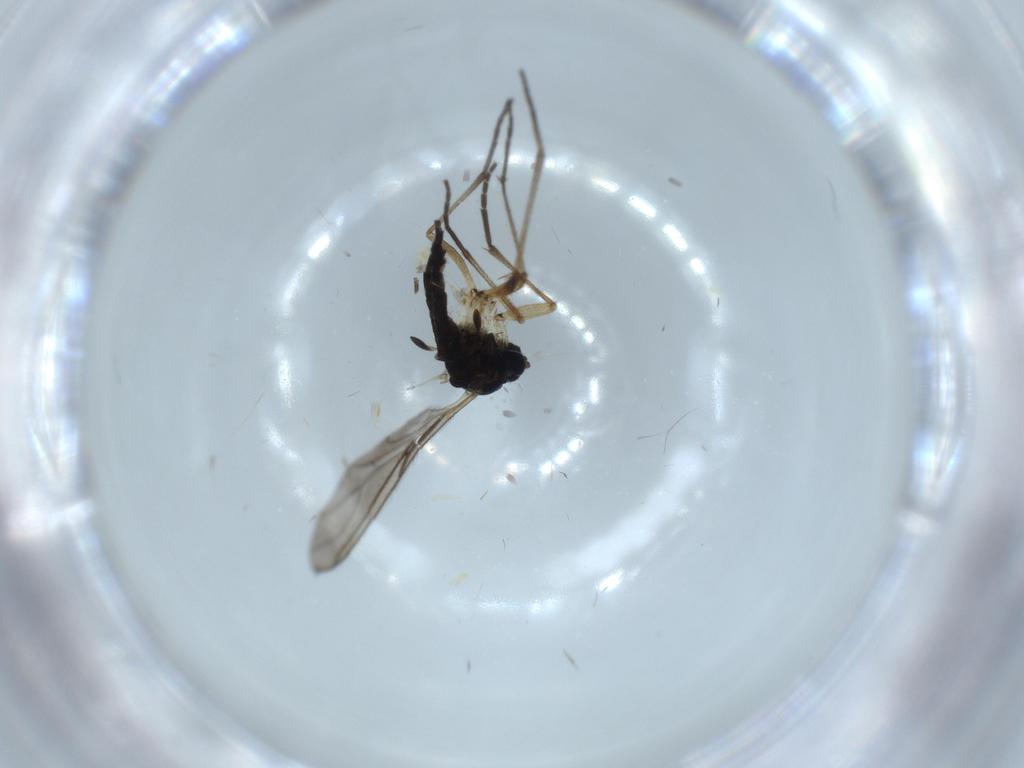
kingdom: Animalia
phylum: Arthropoda
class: Insecta
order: Diptera
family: Sciaridae
